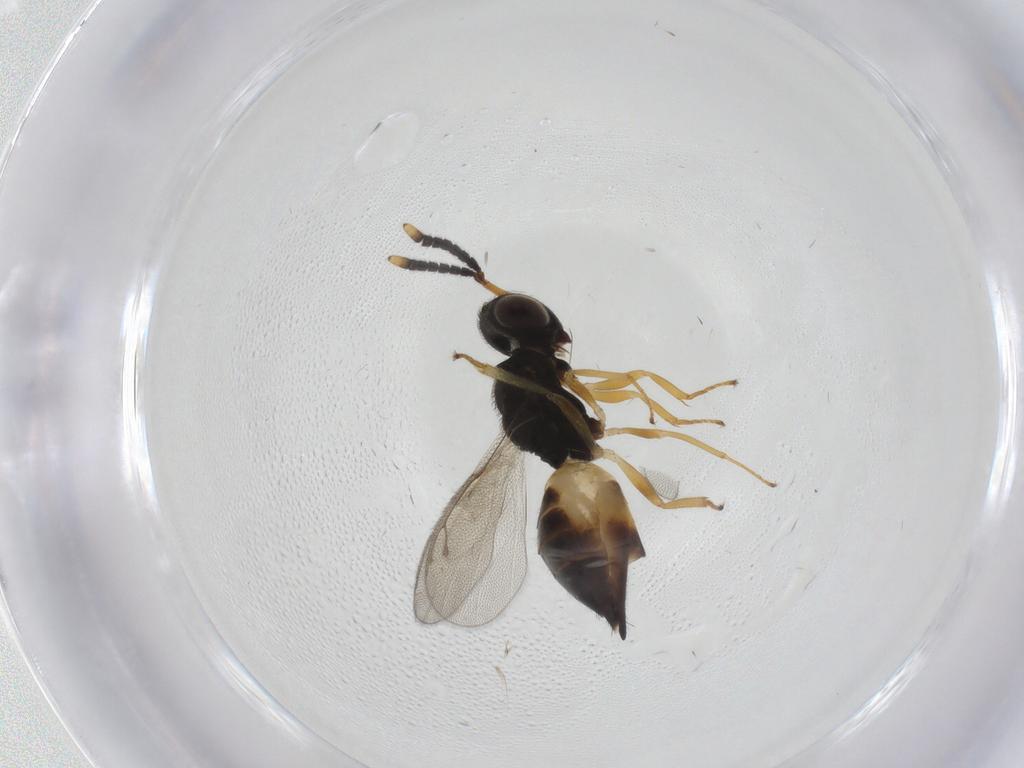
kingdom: Animalia
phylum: Arthropoda
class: Insecta
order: Hymenoptera
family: Pteromalidae
